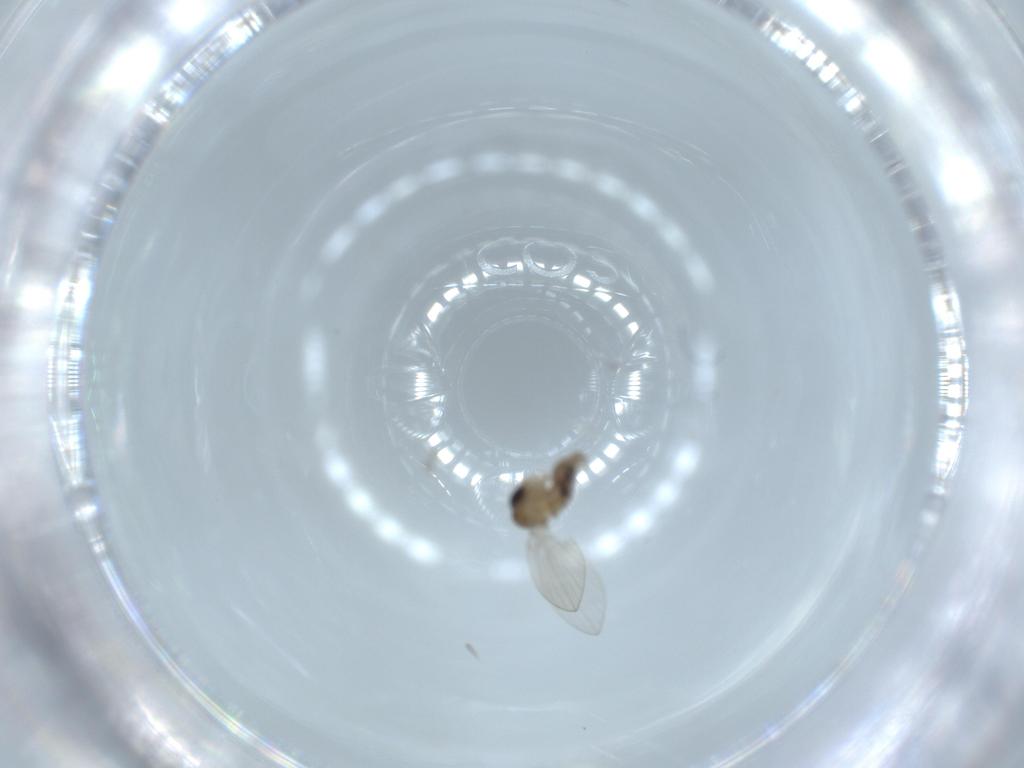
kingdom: Animalia
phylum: Arthropoda
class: Insecta
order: Diptera
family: Psychodidae
